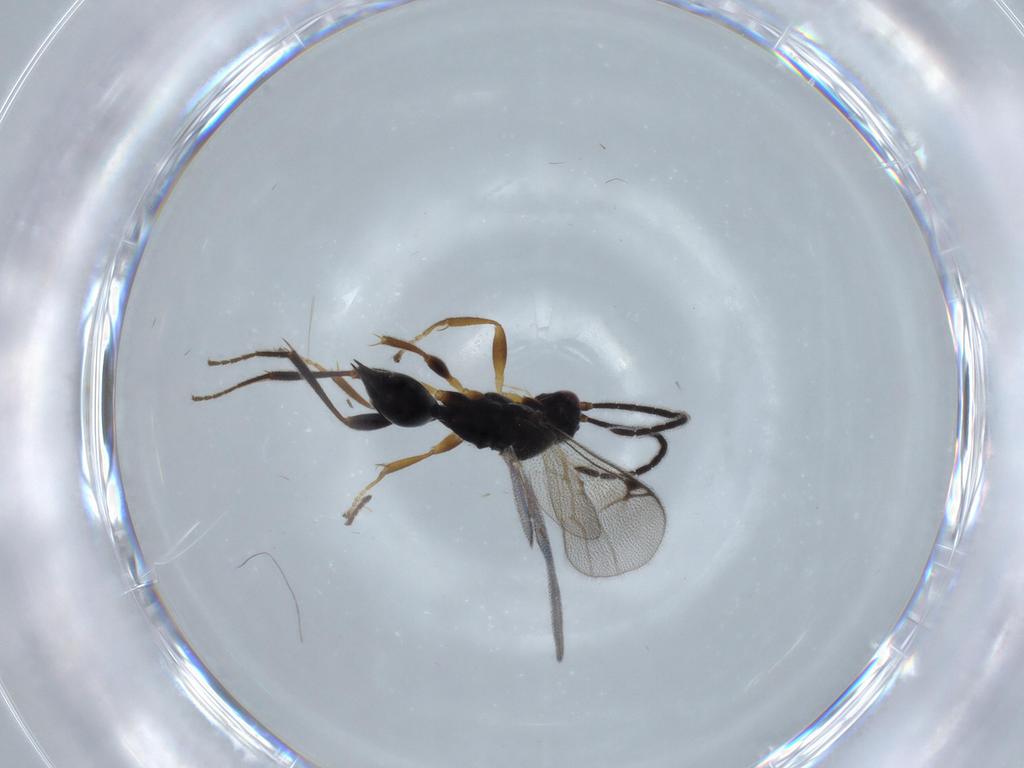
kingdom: Animalia
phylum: Arthropoda
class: Insecta
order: Hymenoptera
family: Proctotrupidae
